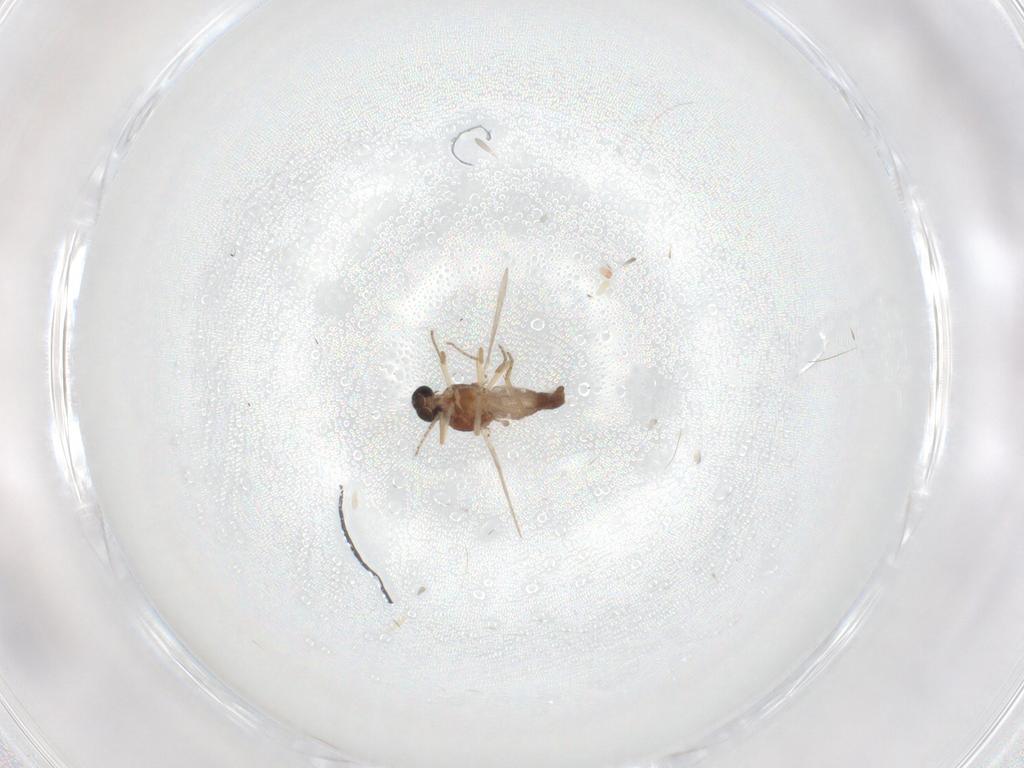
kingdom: Animalia
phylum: Arthropoda
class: Insecta
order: Diptera
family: Ceratopogonidae
